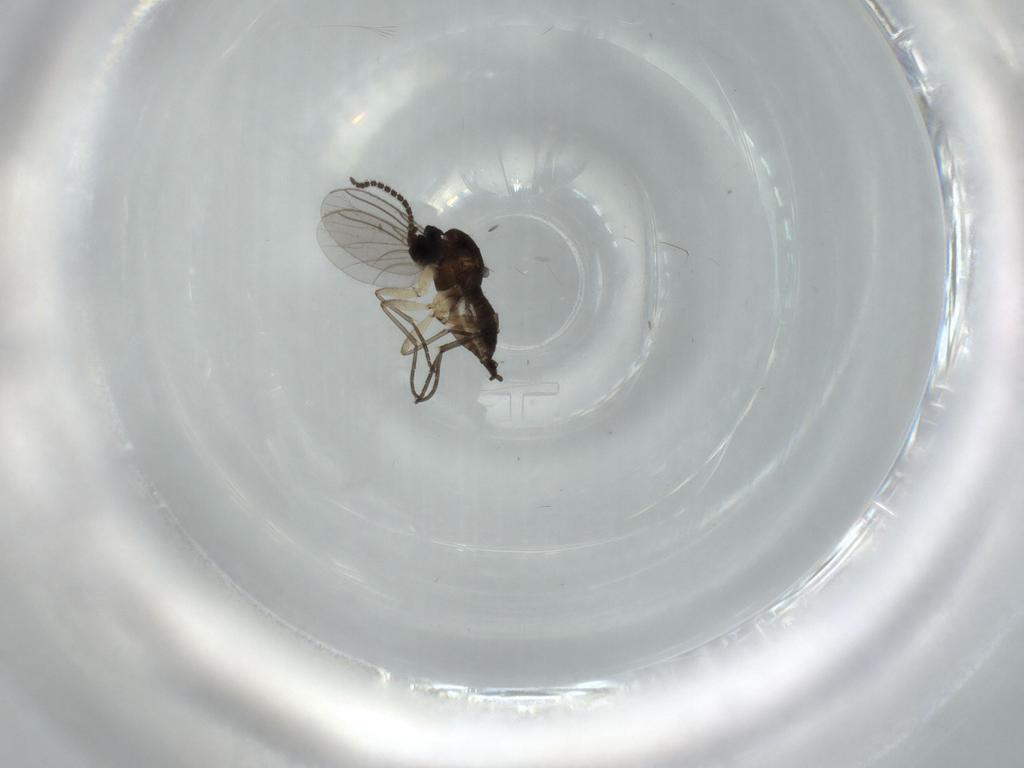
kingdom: Animalia
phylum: Arthropoda
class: Insecta
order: Diptera
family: Sciaridae
